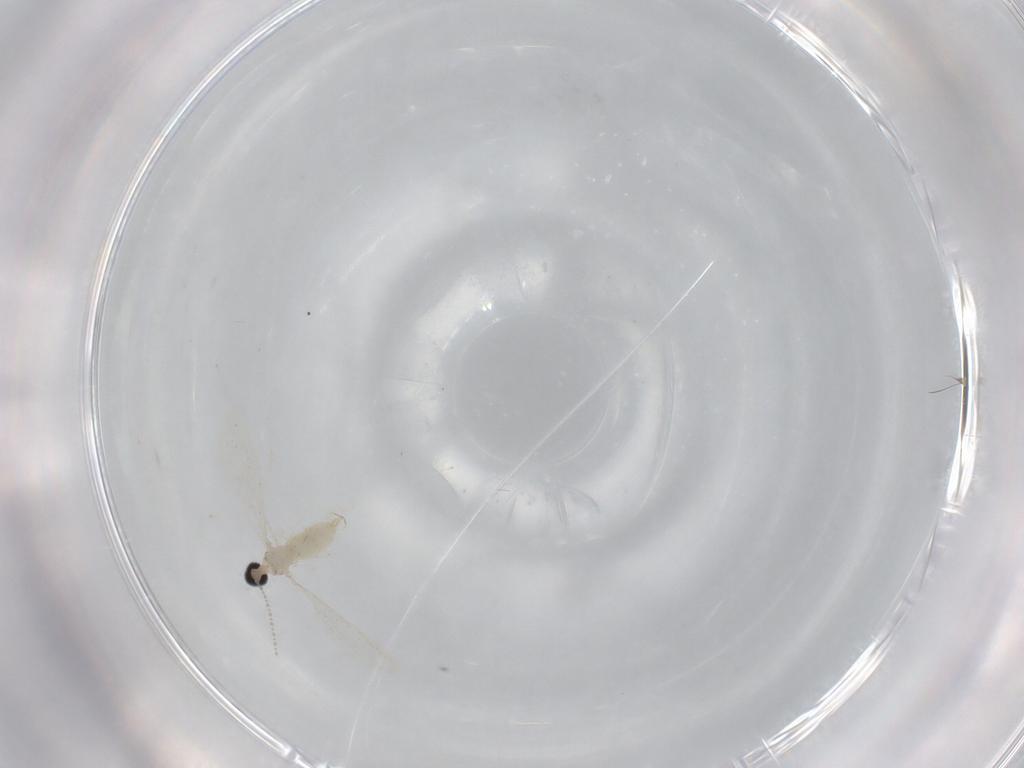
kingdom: Animalia
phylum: Arthropoda
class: Insecta
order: Diptera
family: Cecidomyiidae
